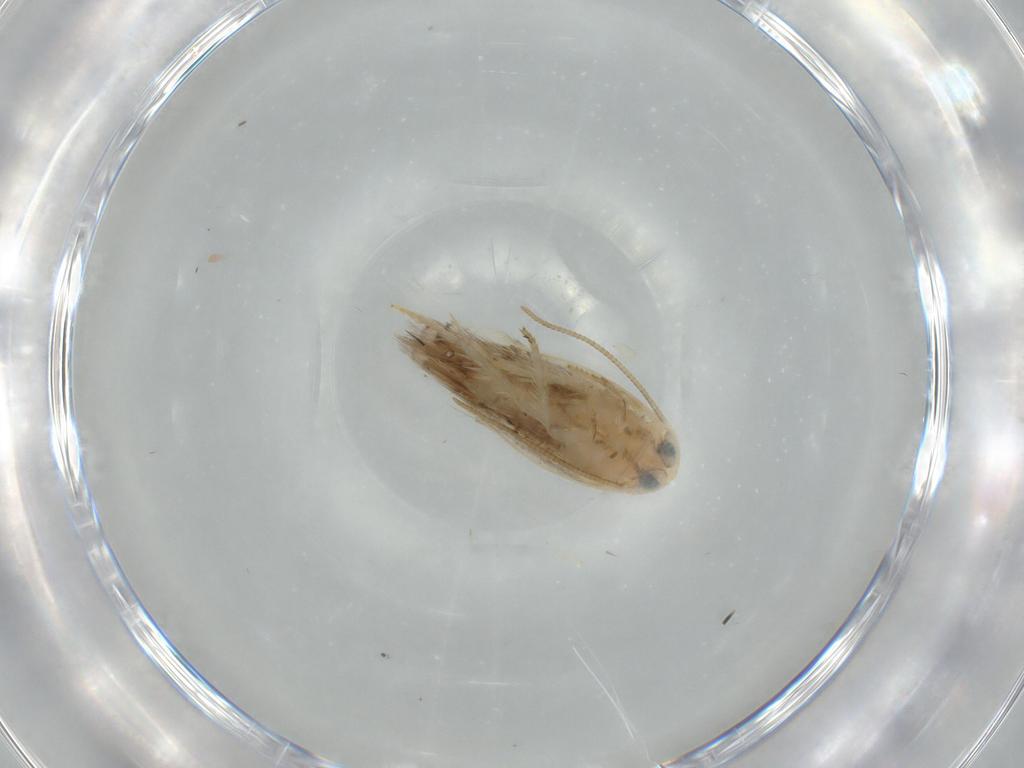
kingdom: Animalia
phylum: Arthropoda
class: Insecta
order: Lepidoptera
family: Opostegidae
